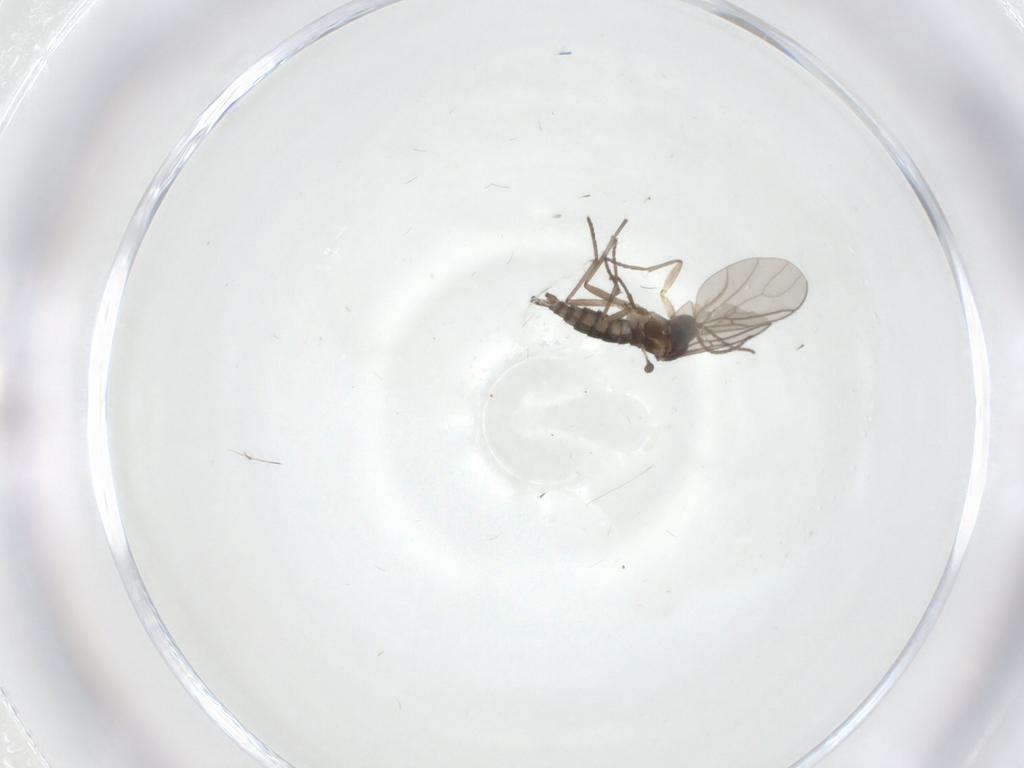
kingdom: Animalia
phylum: Arthropoda
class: Insecta
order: Diptera
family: Sciaridae
